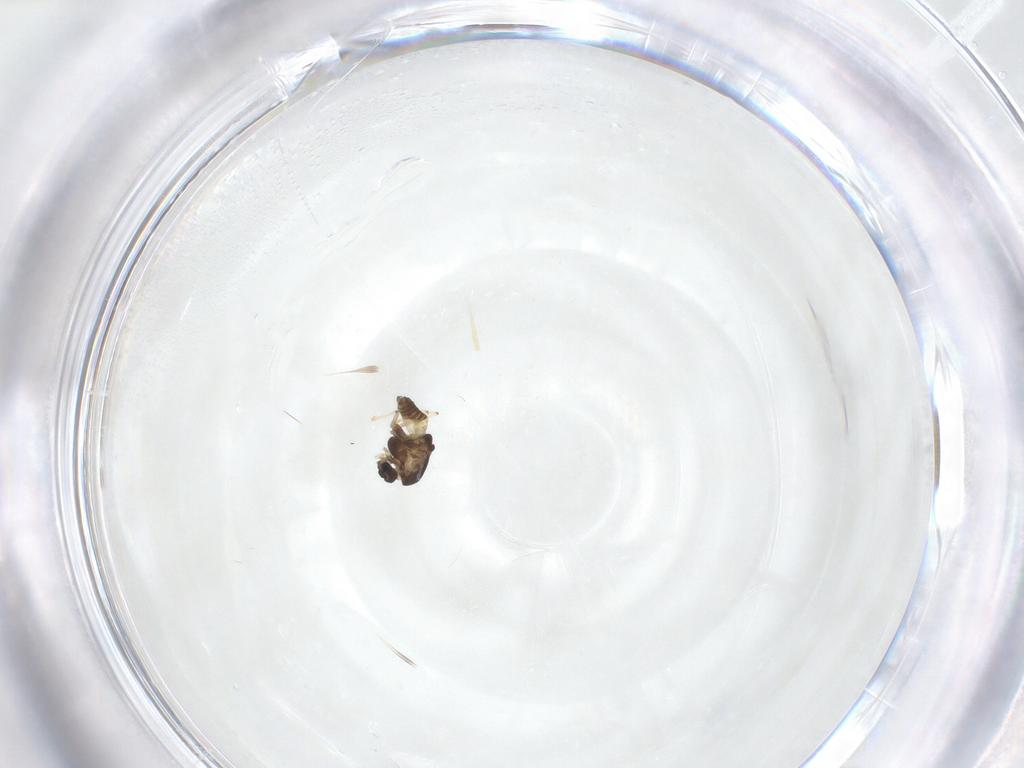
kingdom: Animalia
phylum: Arthropoda
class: Insecta
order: Diptera
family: Chironomidae
